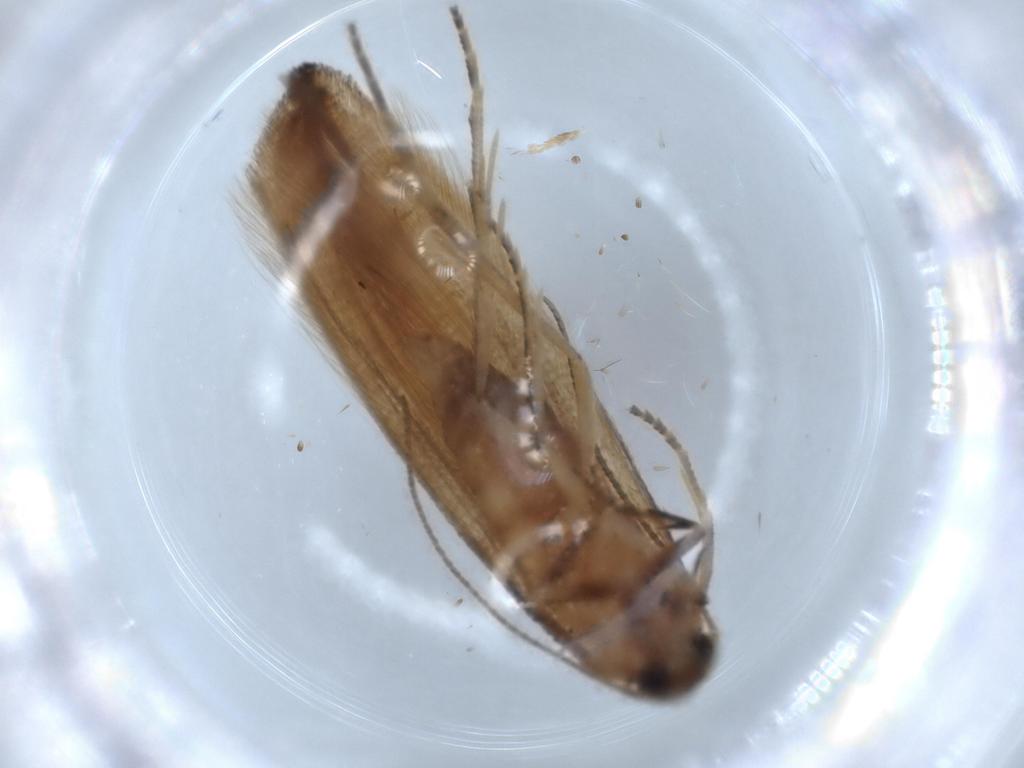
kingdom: Animalia
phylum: Arthropoda
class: Insecta
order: Lepidoptera
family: Stathmopodidae
